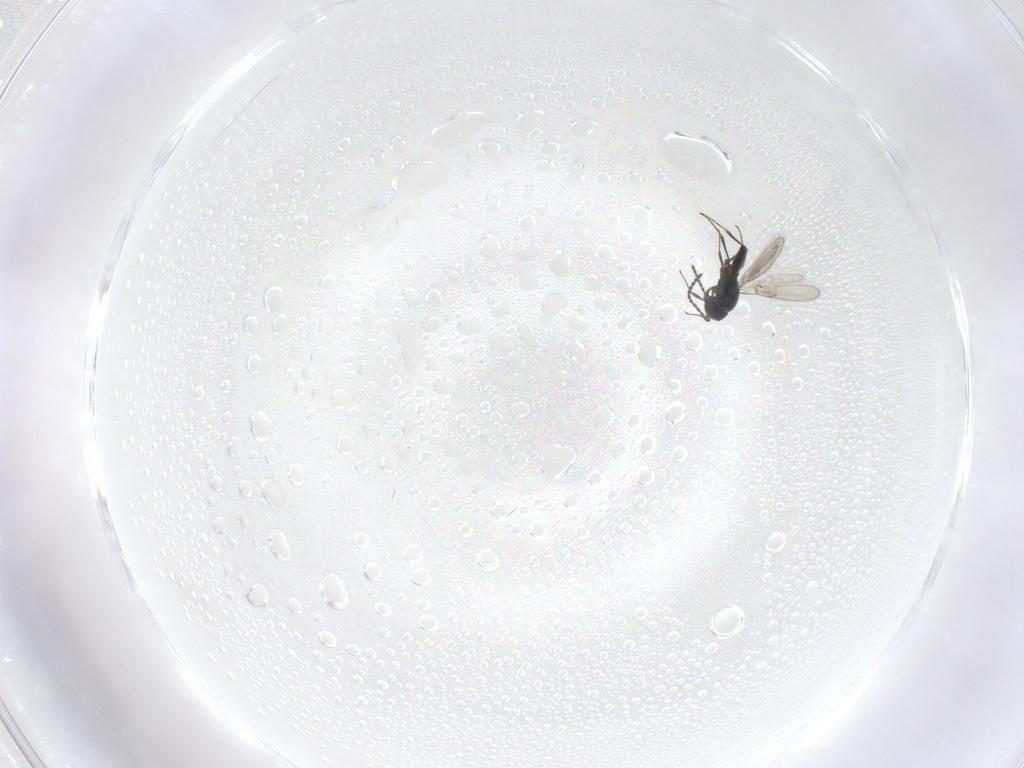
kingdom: Animalia
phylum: Arthropoda
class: Insecta
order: Hymenoptera
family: Scelionidae
